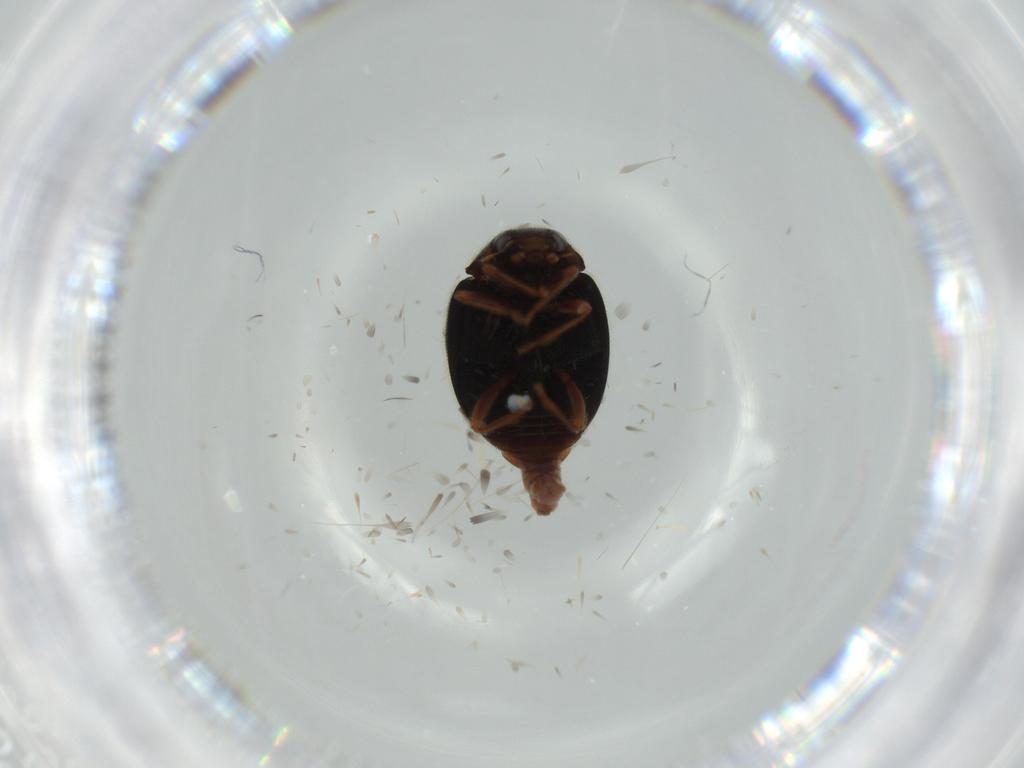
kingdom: Animalia
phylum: Arthropoda
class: Insecta
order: Coleoptera
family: Coccinellidae
